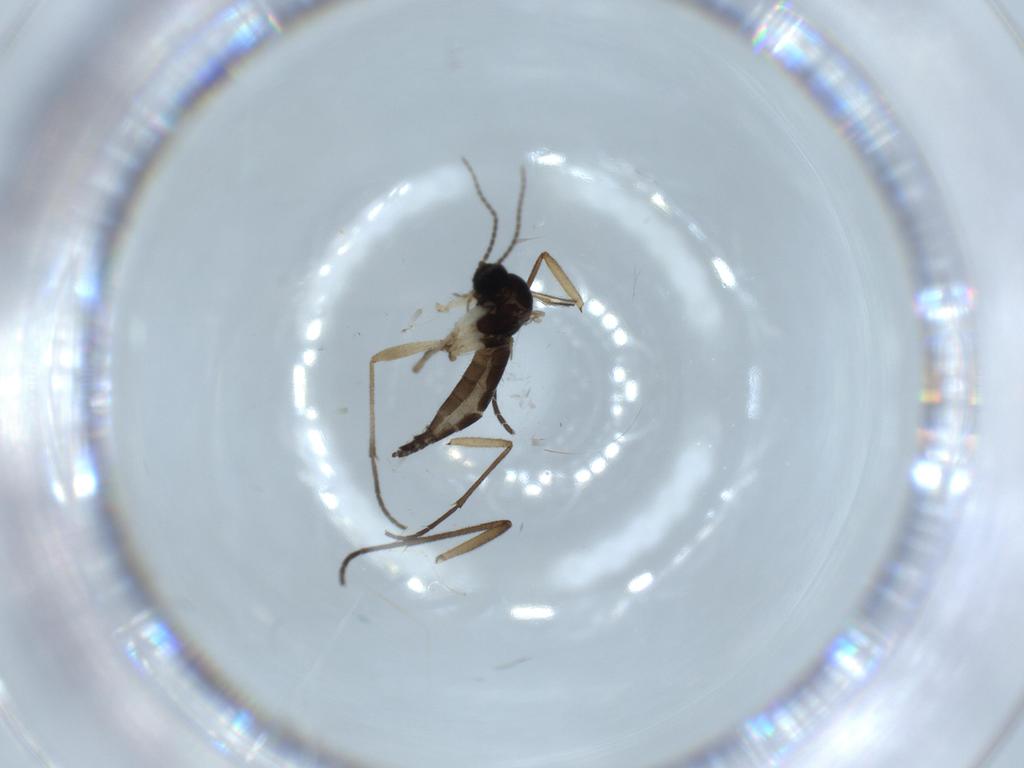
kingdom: Animalia
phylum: Arthropoda
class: Insecta
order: Diptera
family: Sciaridae
